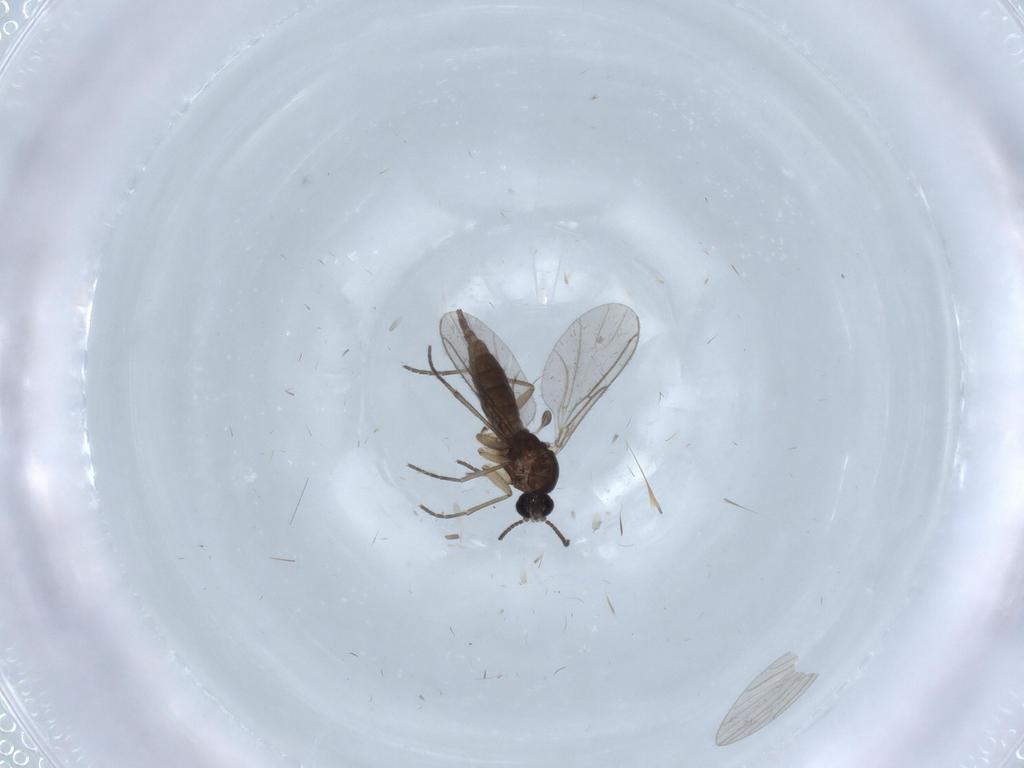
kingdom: Animalia
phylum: Arthropoda
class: Insecta
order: Diptera
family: Sciaridae
